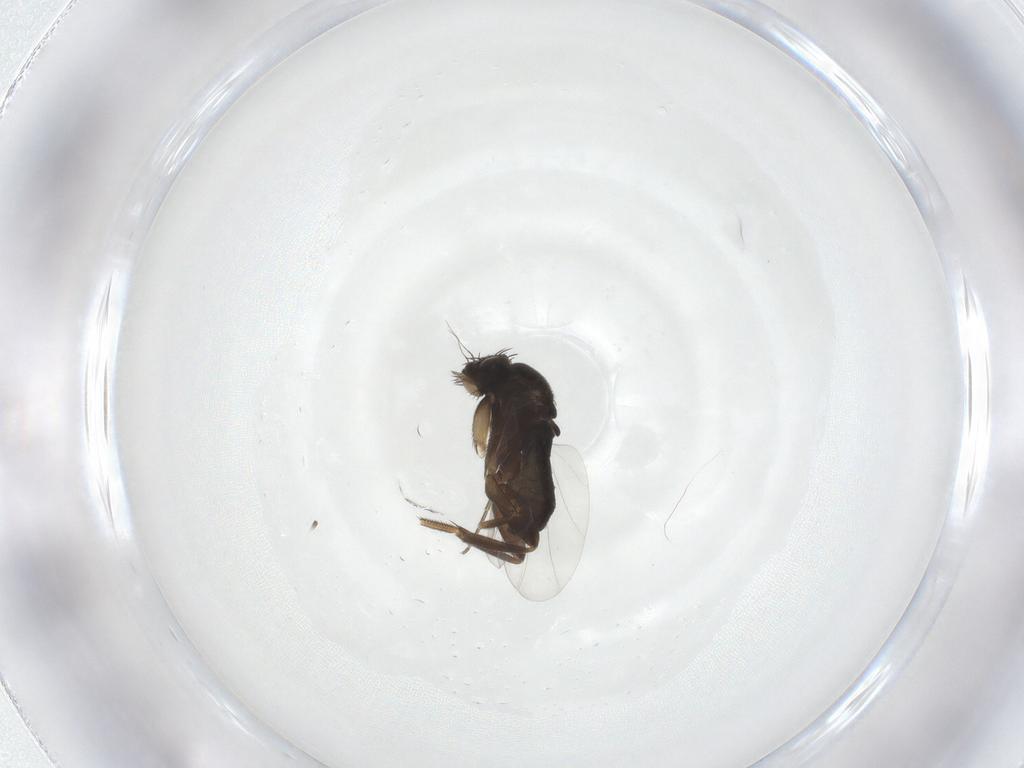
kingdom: Animalia
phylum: Arthropoda
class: Insecta
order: Diptera
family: Phoridae
